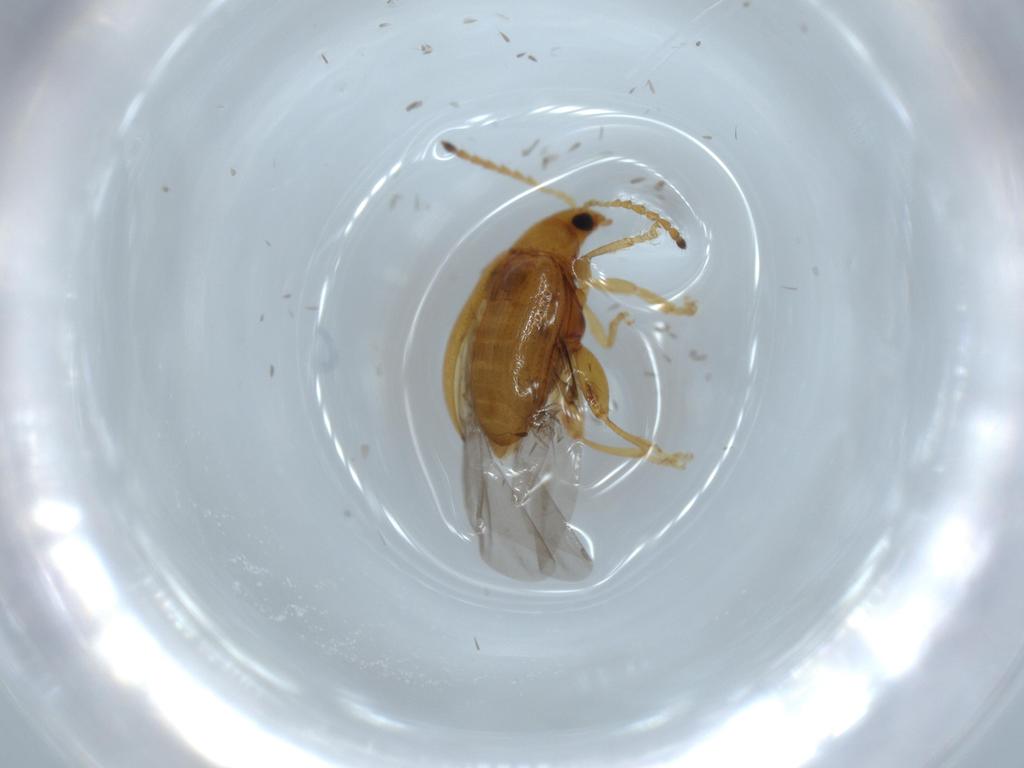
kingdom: Animalia
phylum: Arthropoda
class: Insecta
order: Coleoptera
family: Chrysomelidae
